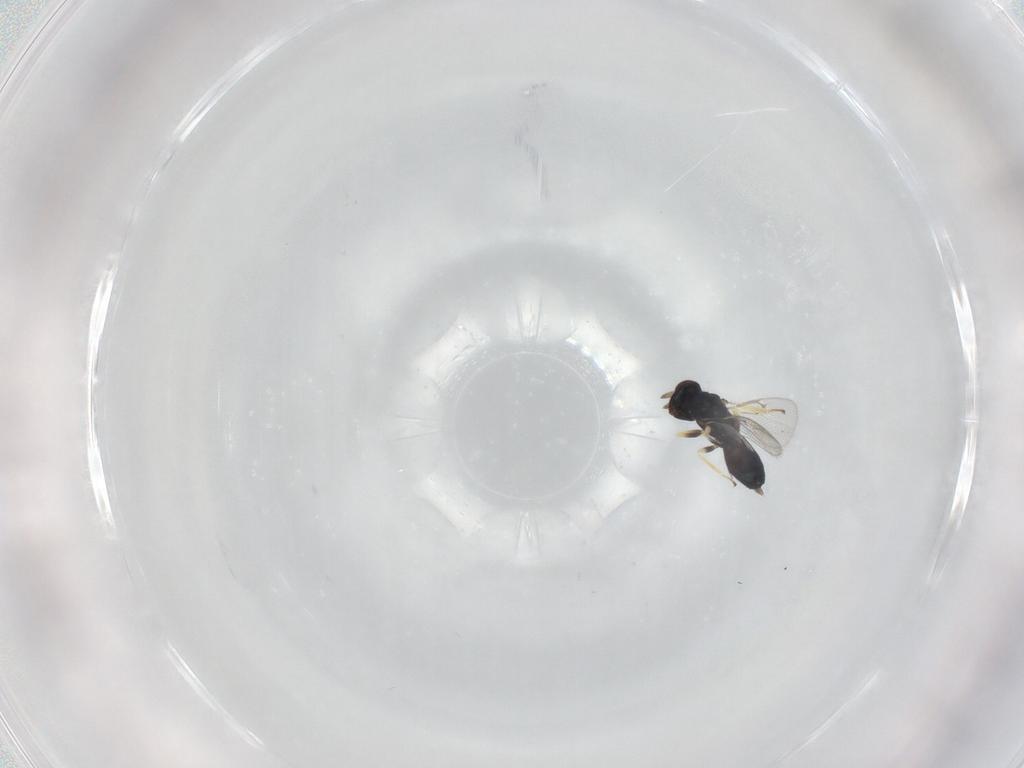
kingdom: Animalia
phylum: Arthropoda
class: Insecta
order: Hymenoptera
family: Eulophidae
